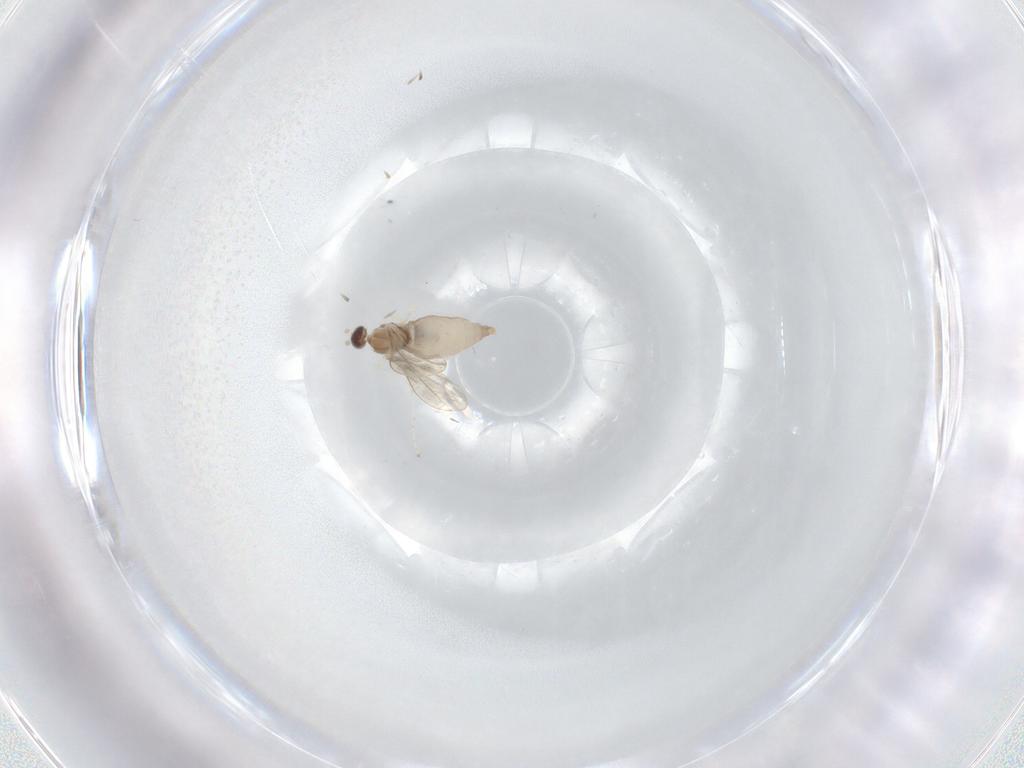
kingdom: Animalia
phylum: Arthropoda
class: Insecta
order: Diptera
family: Cecidomyiidae
